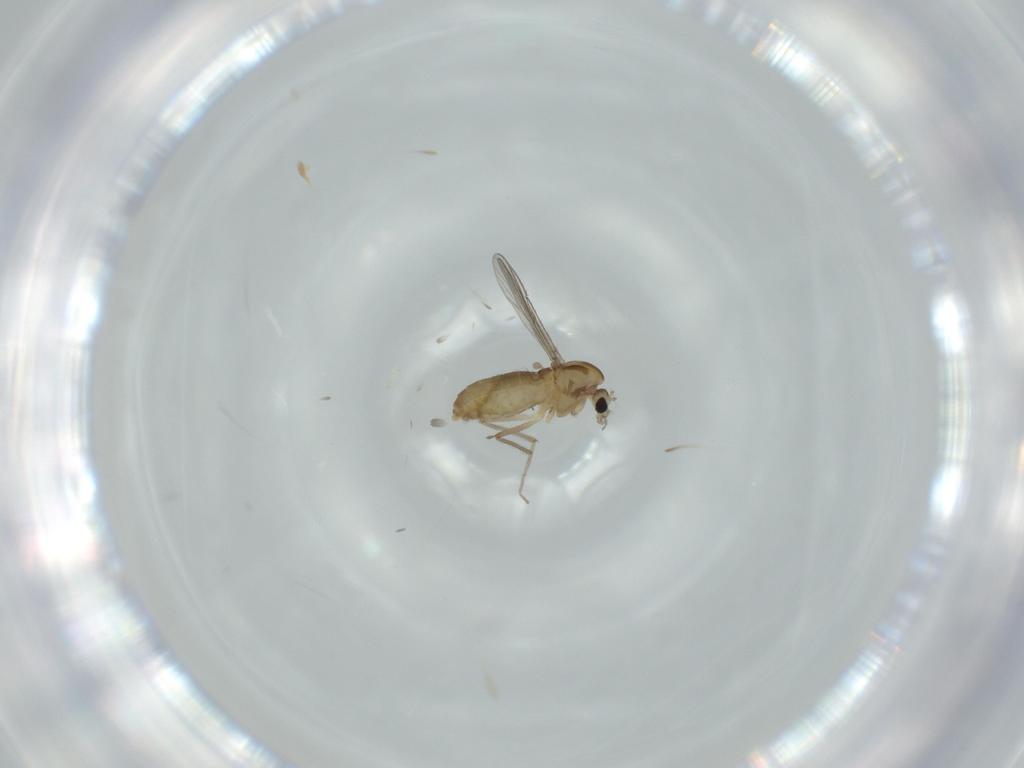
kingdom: Animalia
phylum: Arthropoda
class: Insecta
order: Diptera
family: Chironomidae
